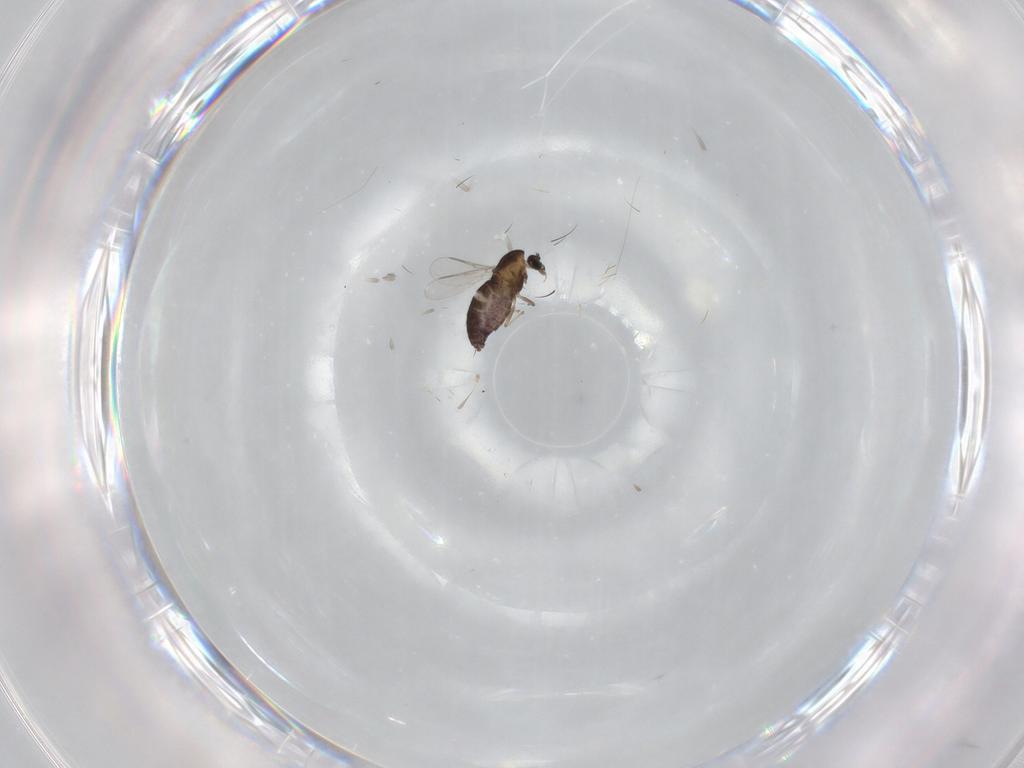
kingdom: Animalia
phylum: Arthropoda
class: Insecta
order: Diptera
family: Chironomidae
